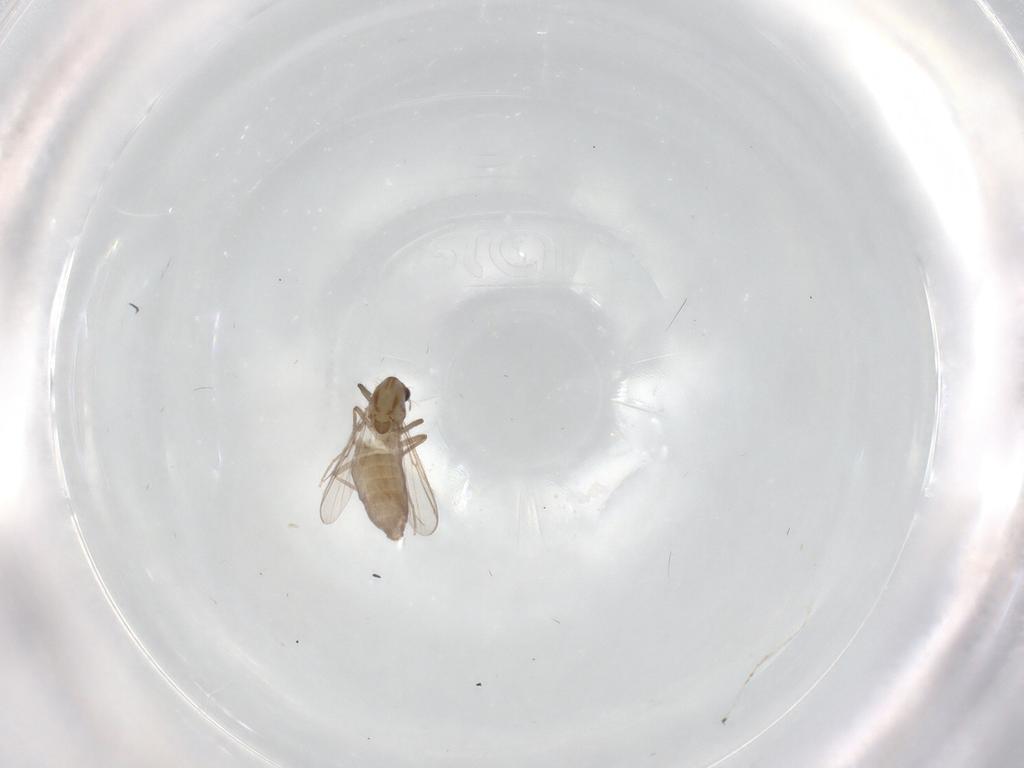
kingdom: Animalia
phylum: Arthropoda
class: Insecta
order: Diptera
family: Chironomidae
